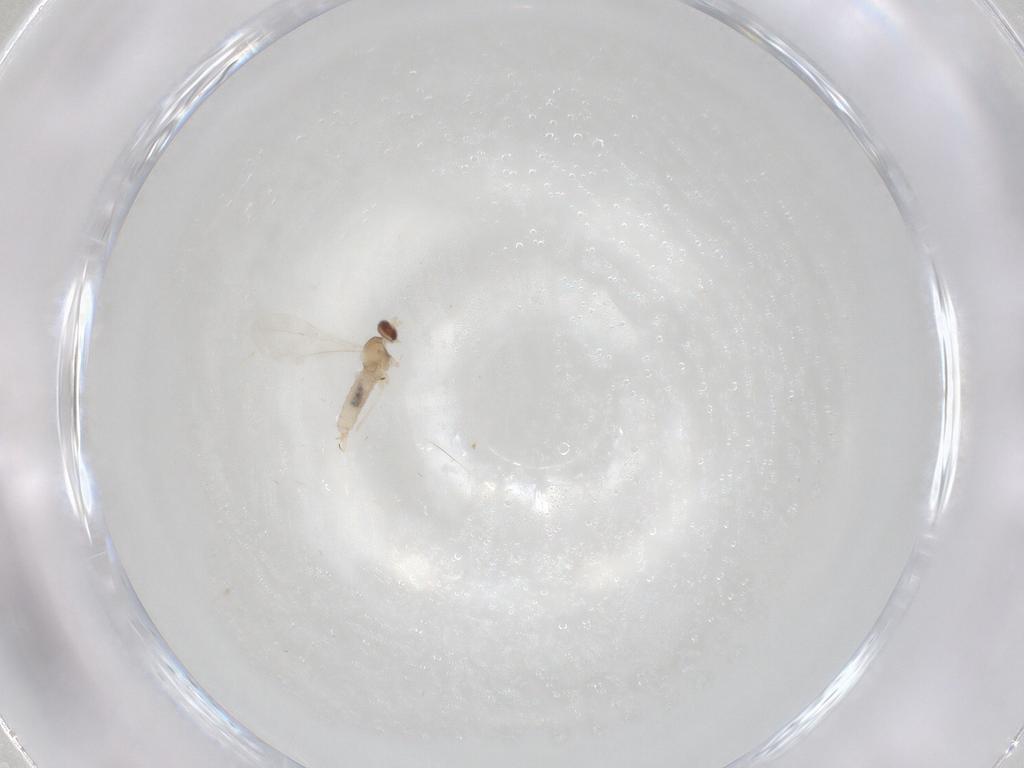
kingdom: Animalia
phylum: Arthropoda
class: Insecta
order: Diptera
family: Cecidomyiidae
